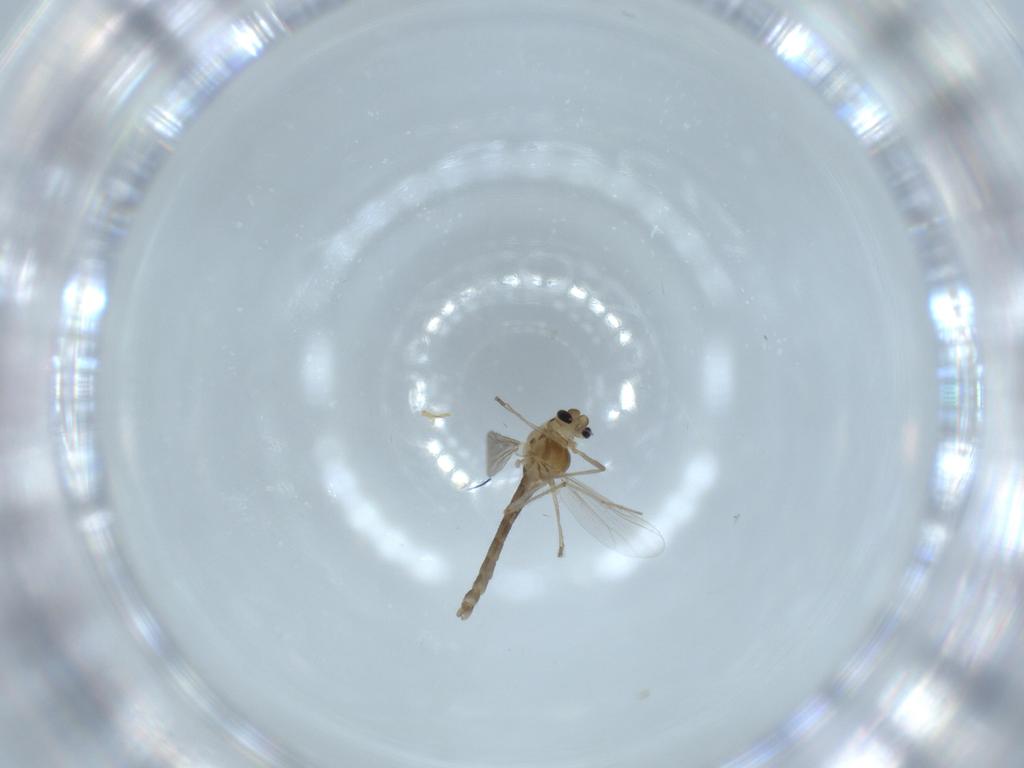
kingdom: Animalia
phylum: Arthropoda
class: Insecta
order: Diptera
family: Chironomidae
